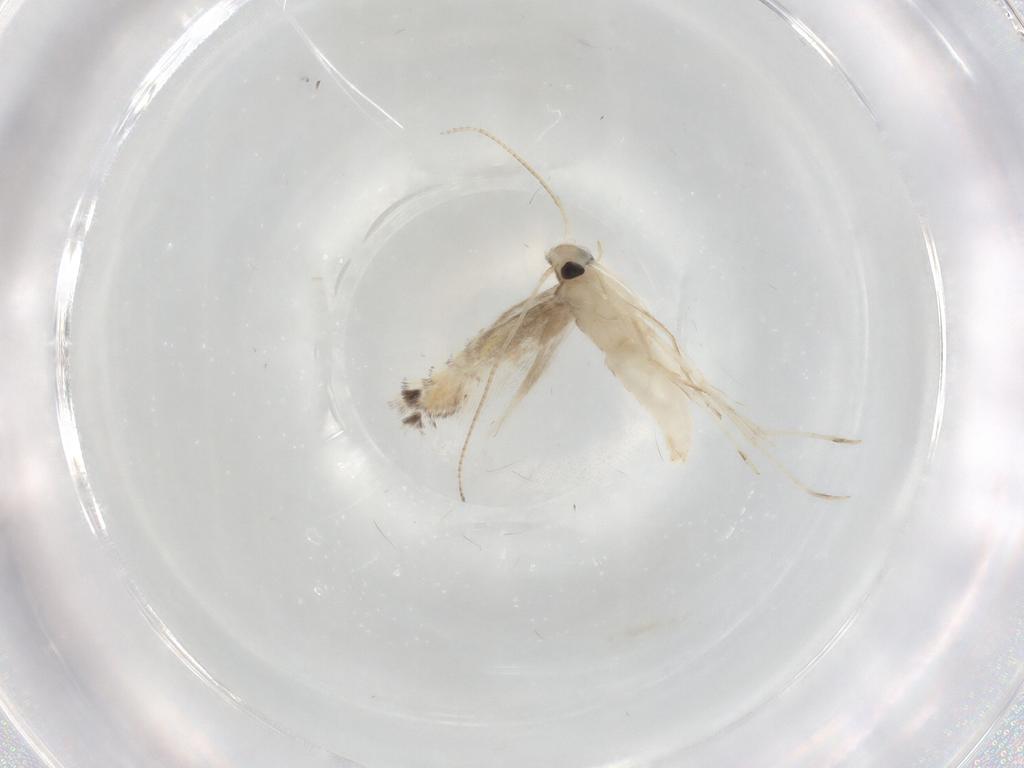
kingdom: Animalia
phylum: Arthropoda
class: Insecta
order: Lepidoptera
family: Gracillariidae
